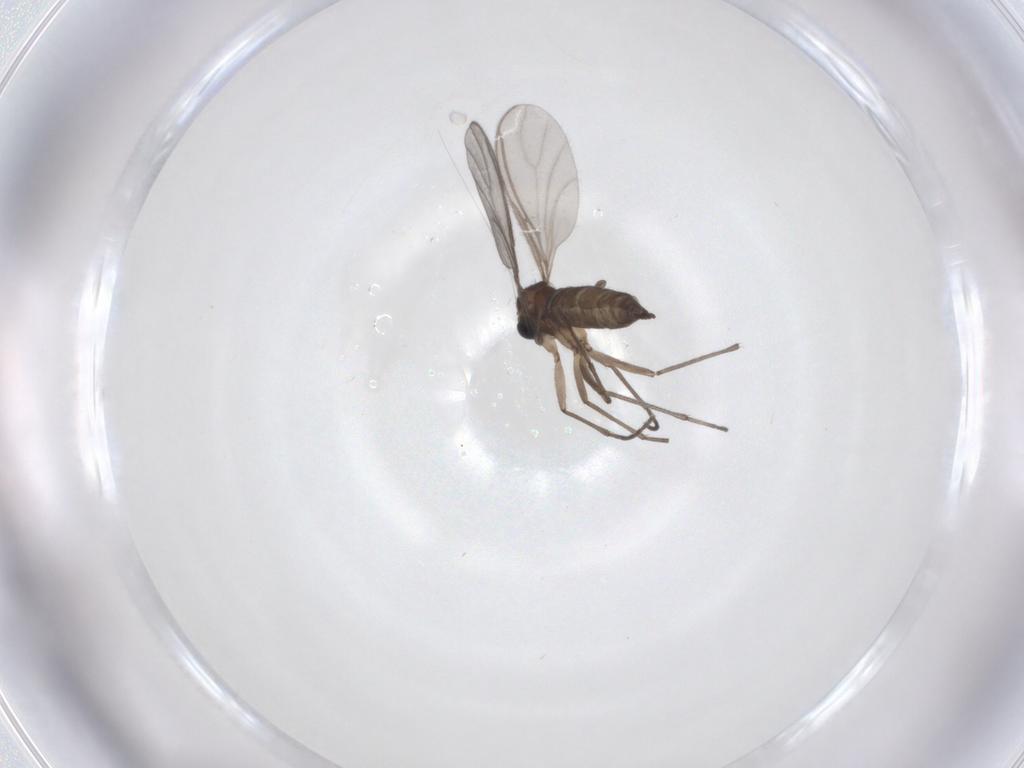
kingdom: Animalia
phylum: Arthropoda
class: Insecta
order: Diptera
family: Sciaridae
